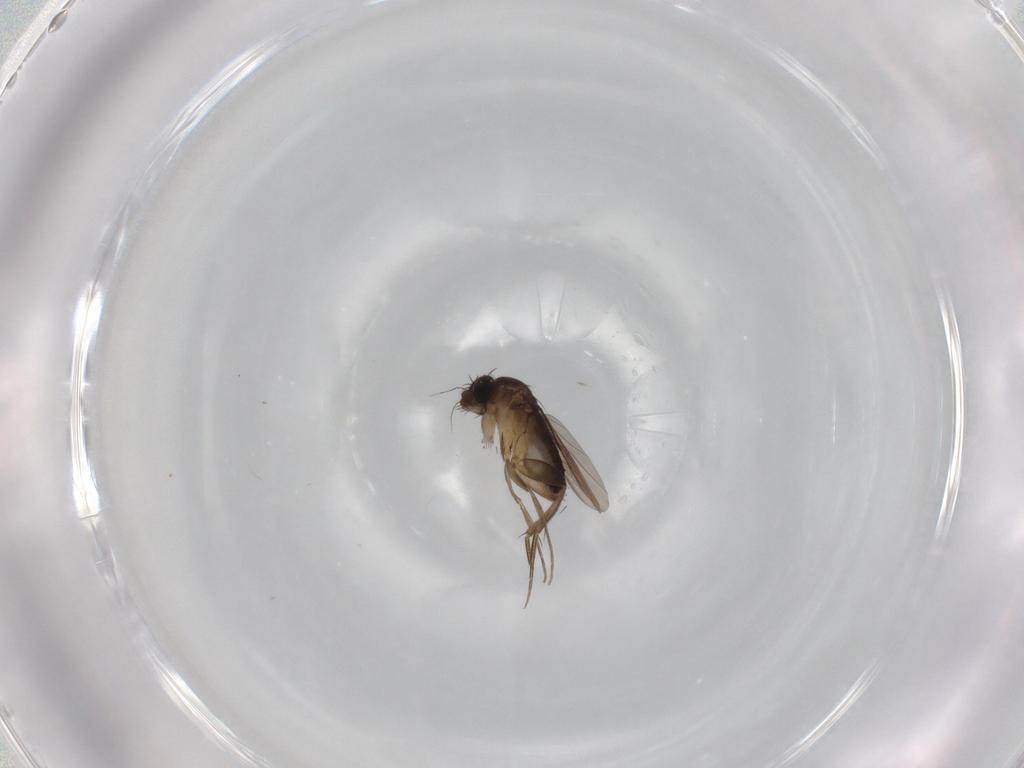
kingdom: Animalia
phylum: Arthropoda
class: Insecta
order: Diptera
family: Phoridae
